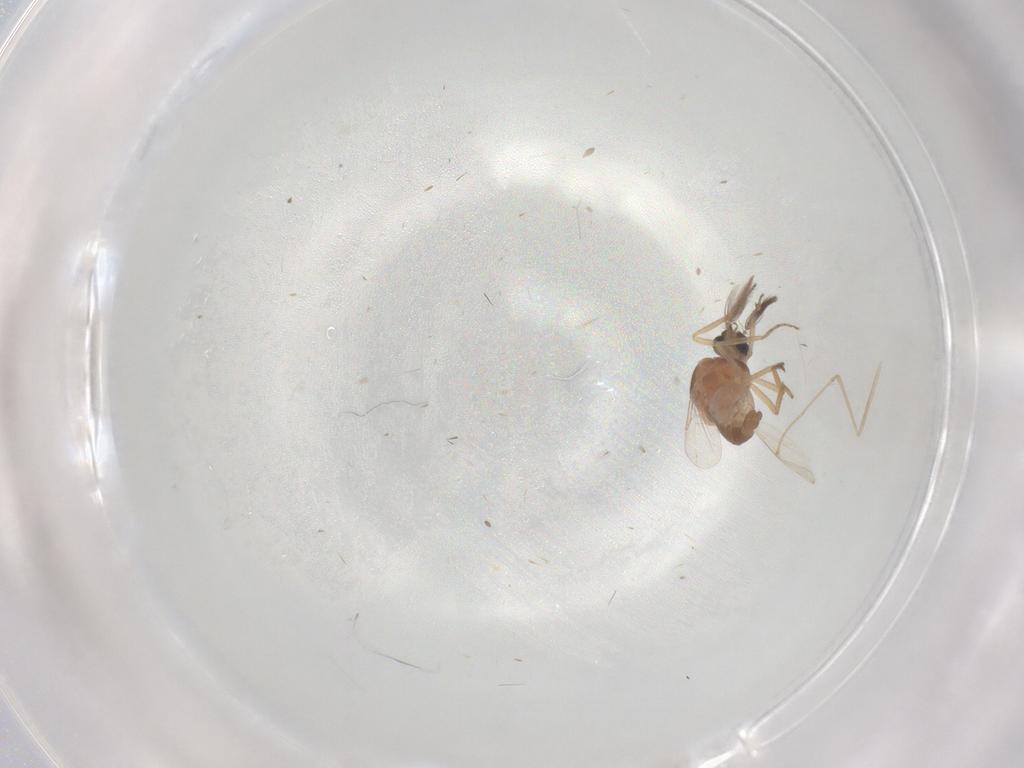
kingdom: Animalia
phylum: Arthropoda
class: Insecta
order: Diptera
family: Ceratopogonidae
